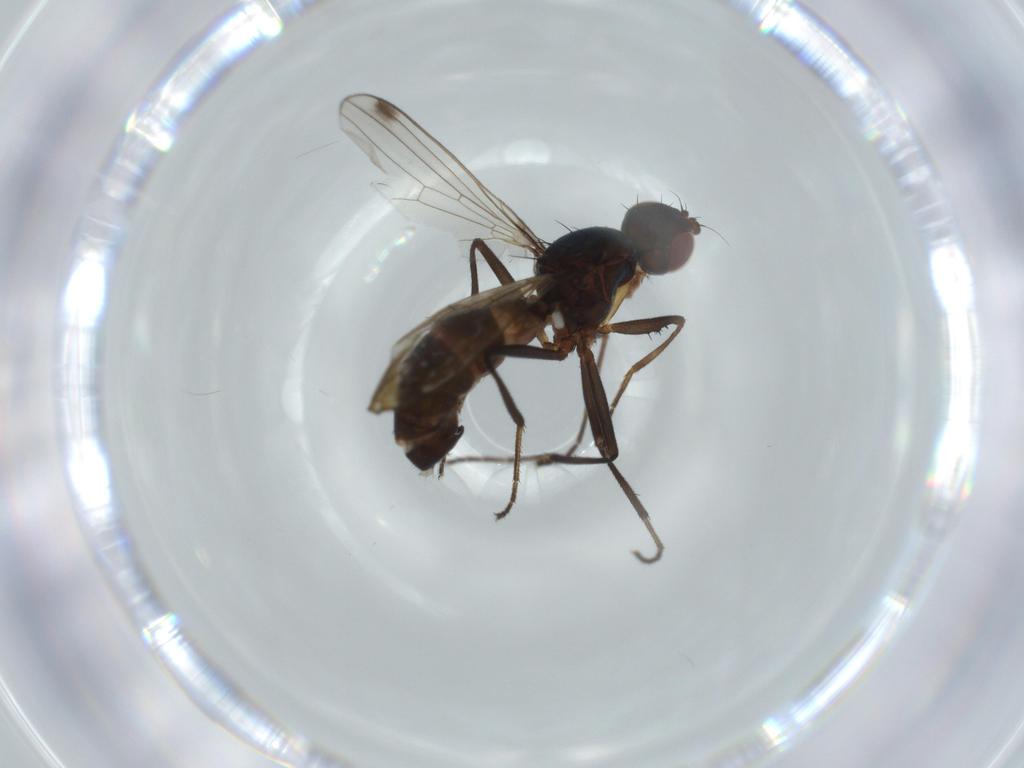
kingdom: Animalia
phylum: Arthropoda
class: Insecta
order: Diptera
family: Sepsidae
